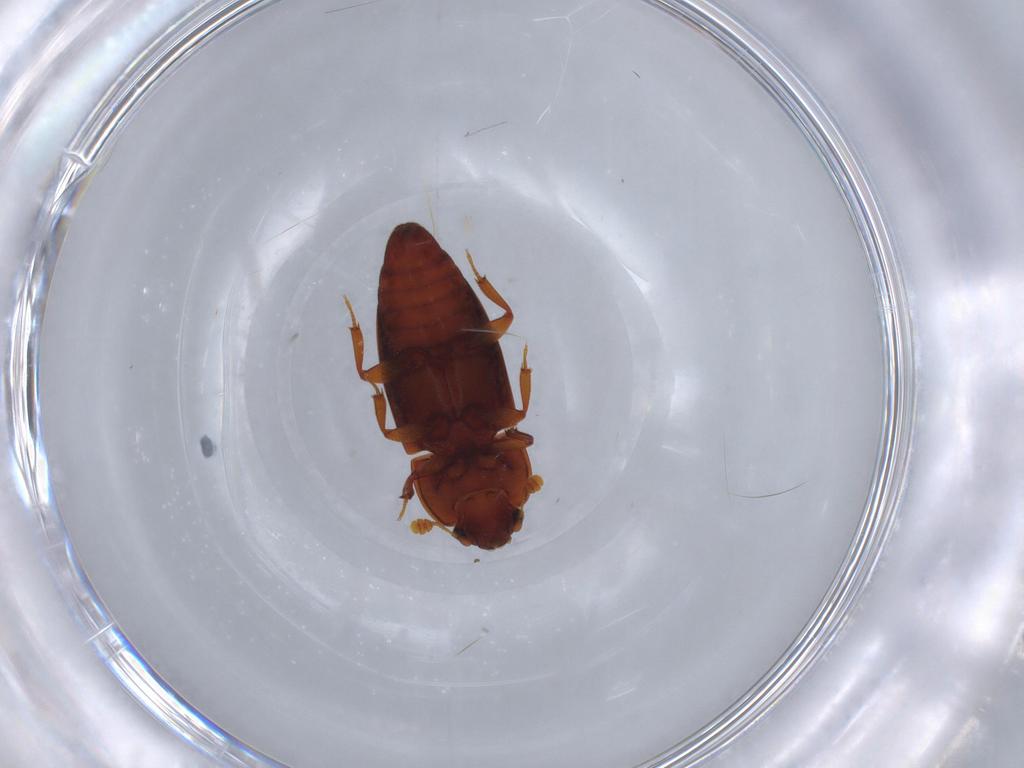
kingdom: Animalia
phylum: Arthropoda
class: Insecta
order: Coleoptera
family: Nitidulidae
